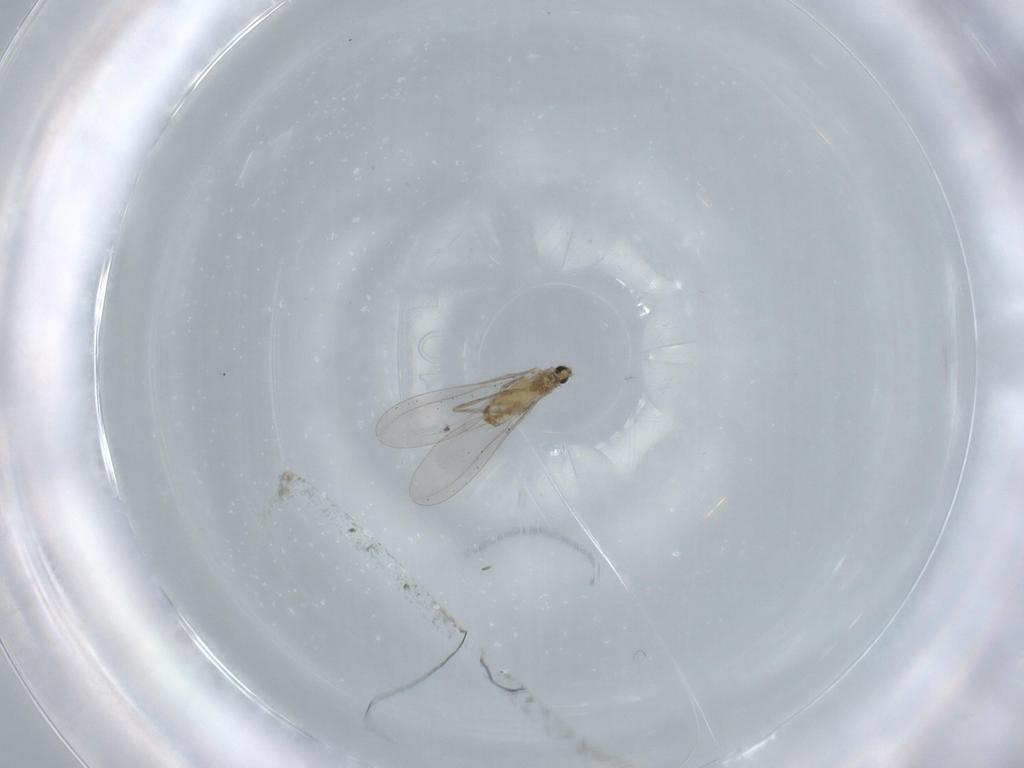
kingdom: Animalia
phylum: Arthropoda
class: Insecta
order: Diptera
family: Cecidomyiidae
